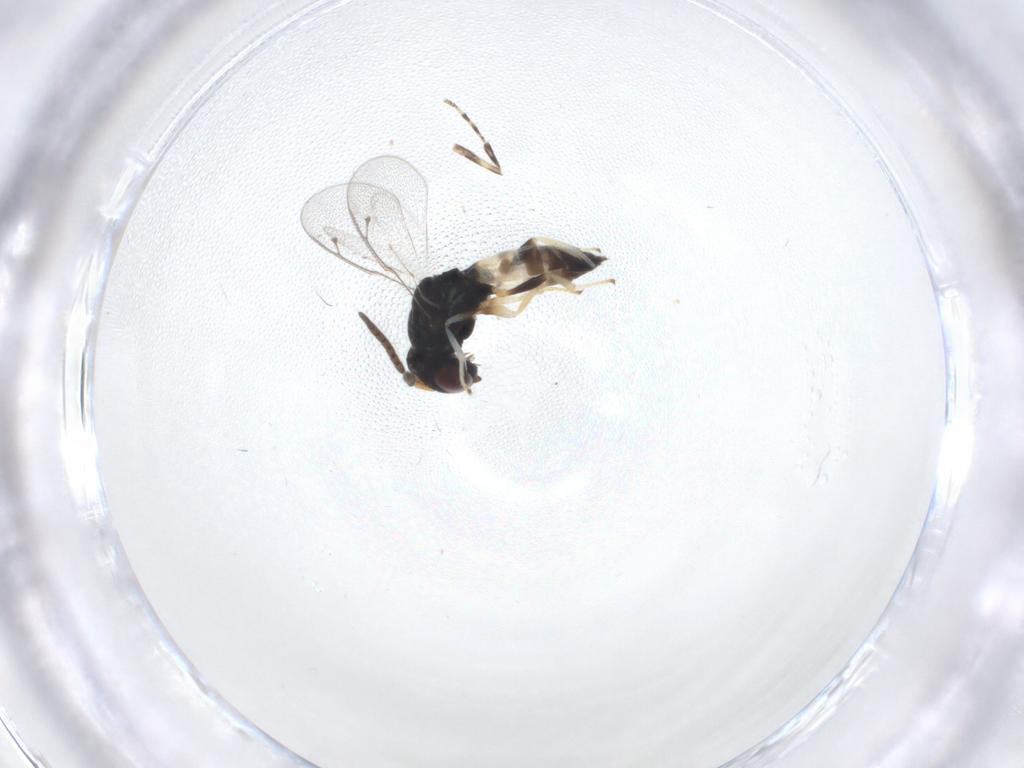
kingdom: Animalia
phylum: Arthropoda
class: Insecta
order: Hymenoptera
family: Pteromalidae
